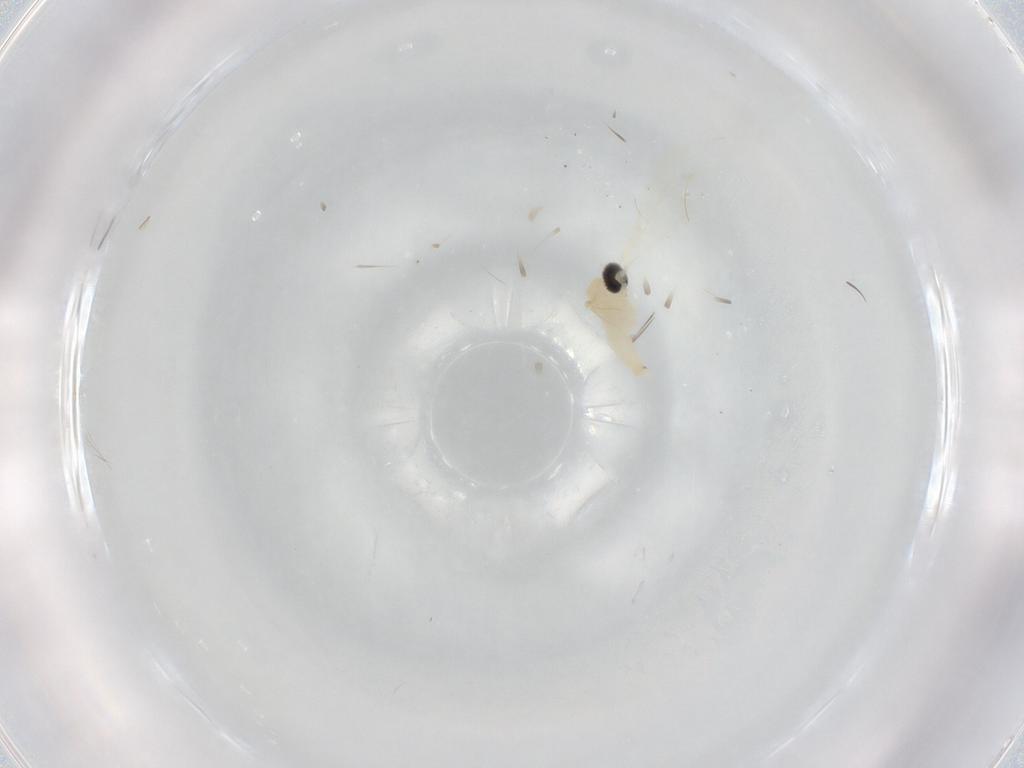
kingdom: Animalia
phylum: Arthropoda
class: Insecta
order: Diptera
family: Cecidomyiidae
